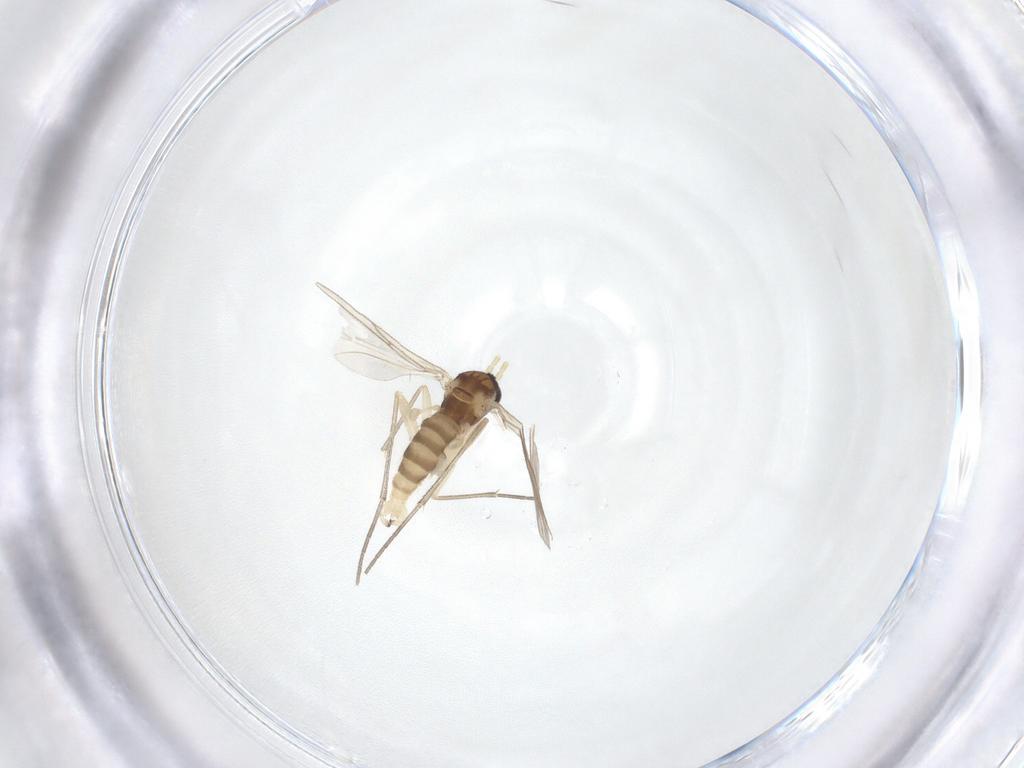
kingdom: Animalia
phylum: Arthropoda
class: Insecta
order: Diptera
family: Sciaridae
